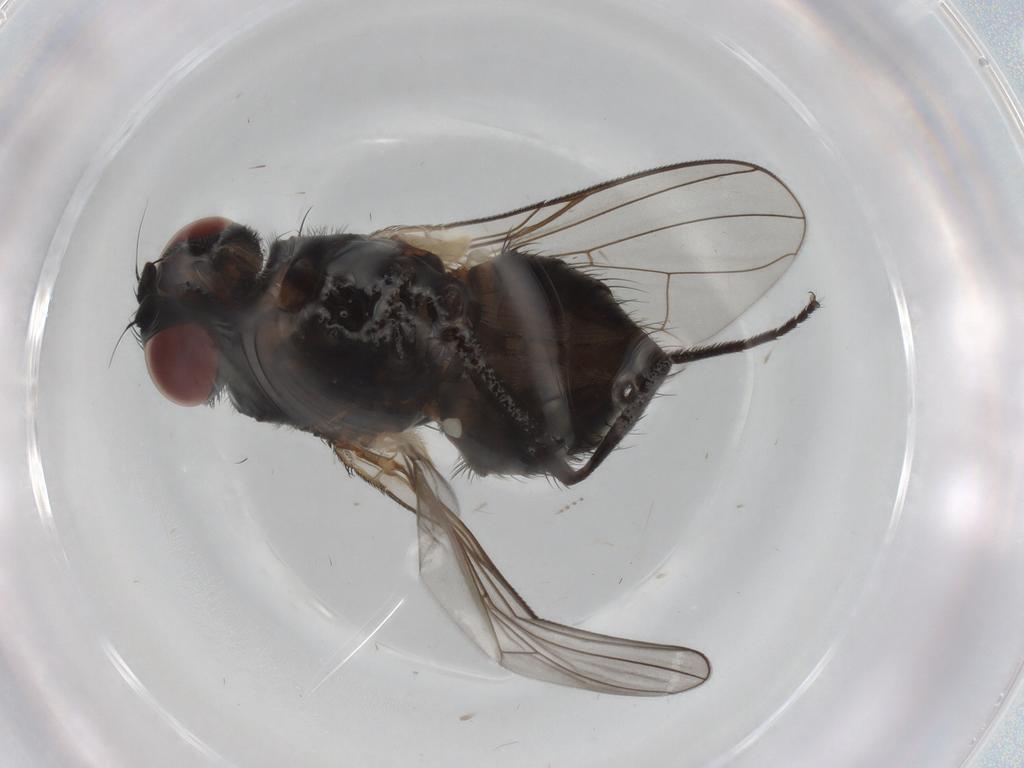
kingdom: Animalia
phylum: Arthropoda
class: Insecta
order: Diptera
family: Muscidae
